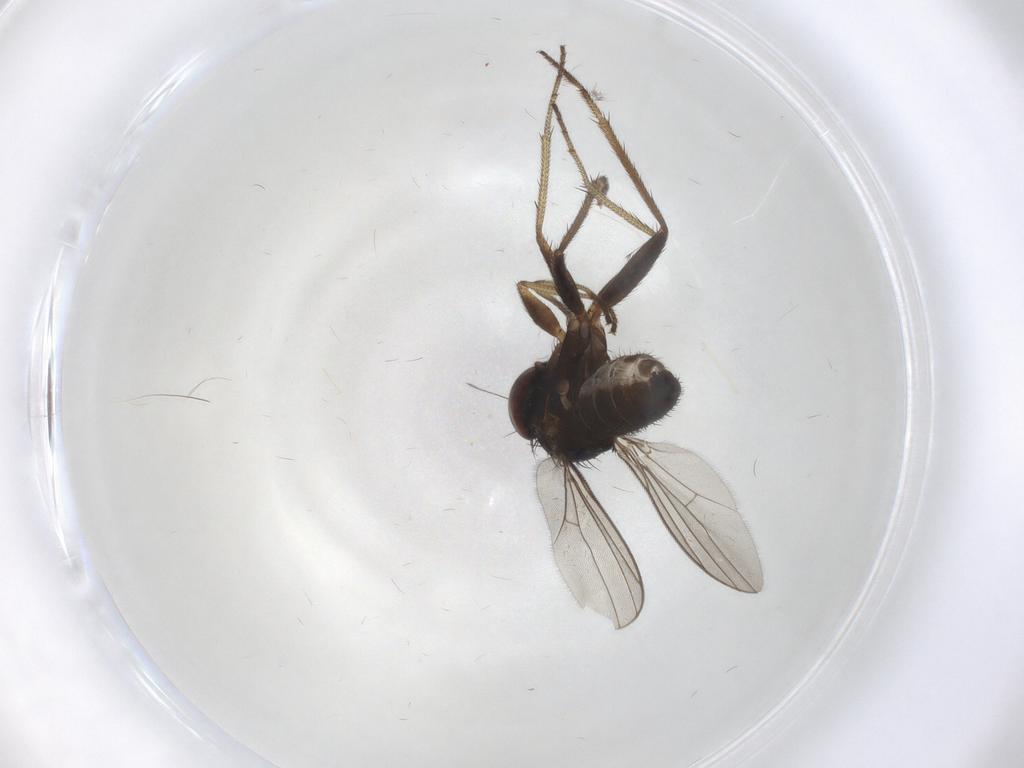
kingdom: Animalia
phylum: Arthropoda
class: Insecta
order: Diptera
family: Cecidomyiidae
